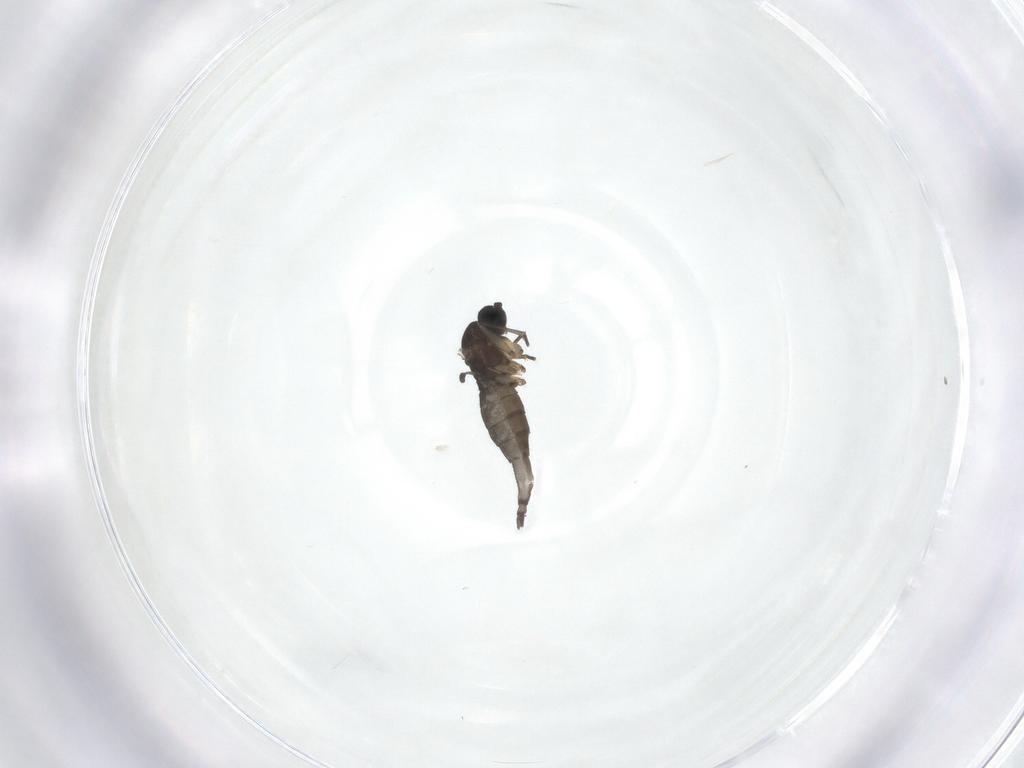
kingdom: Animalia
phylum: Arthropoda
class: Insecta
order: Diptera
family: Sciaridae
